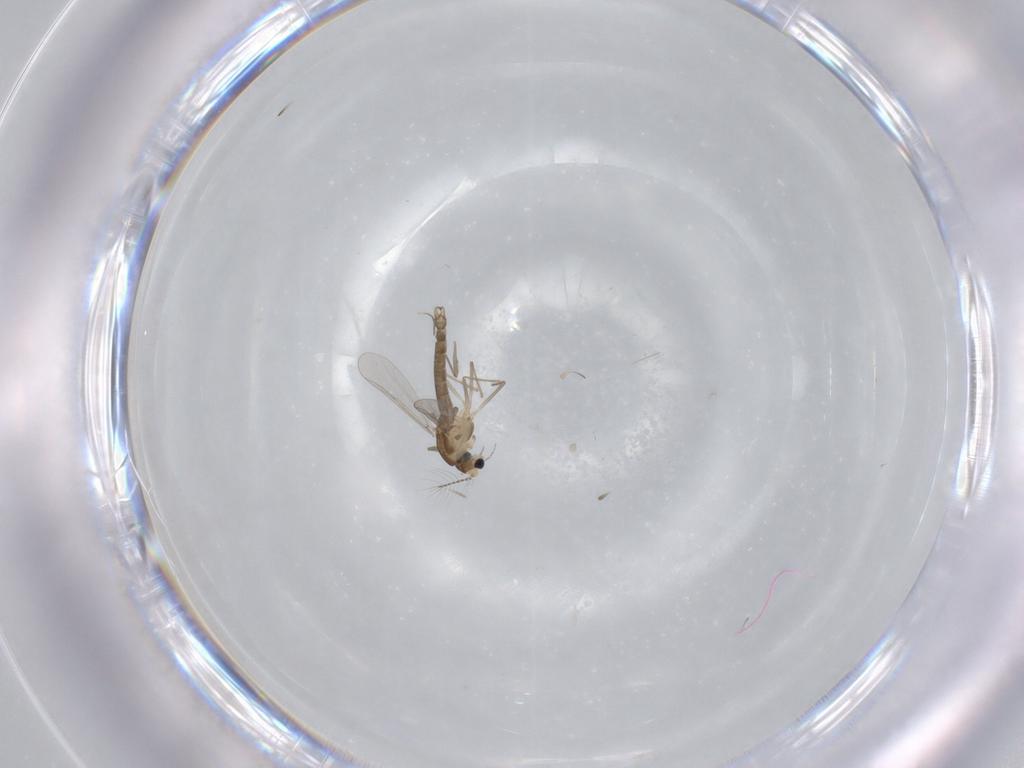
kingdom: Animalia
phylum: Arthropoda
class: Insecta
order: Diptera
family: Chironomidae
